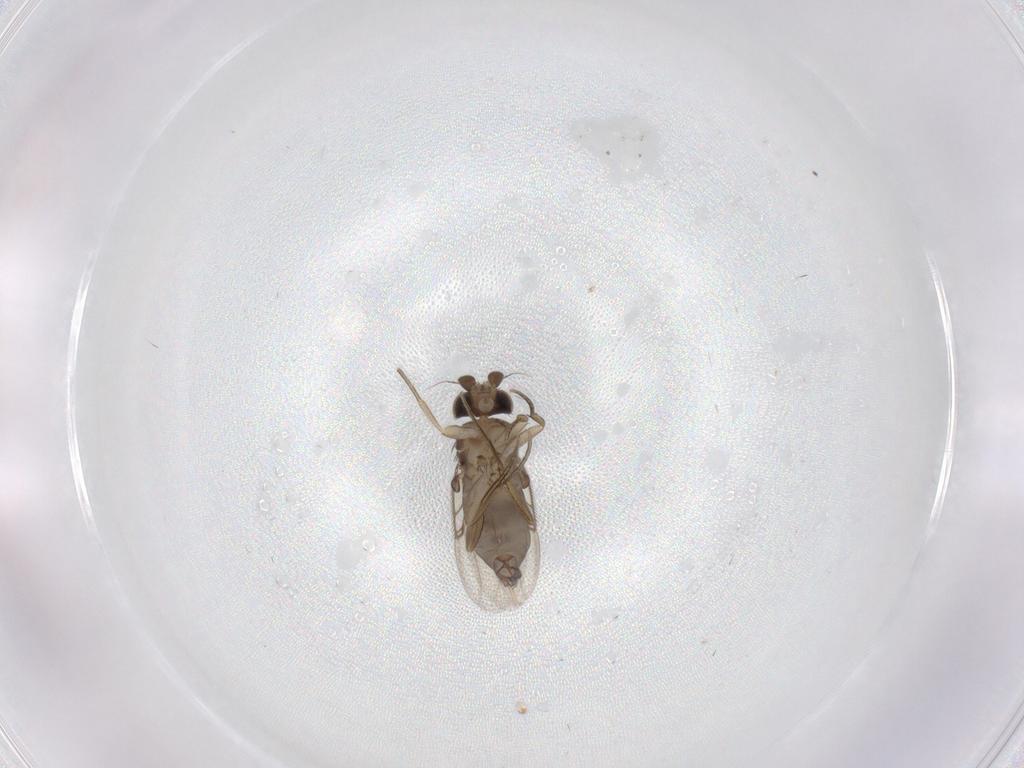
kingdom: Animalia
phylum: Arthropoda
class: Insecta
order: Diptera
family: Phoridae
